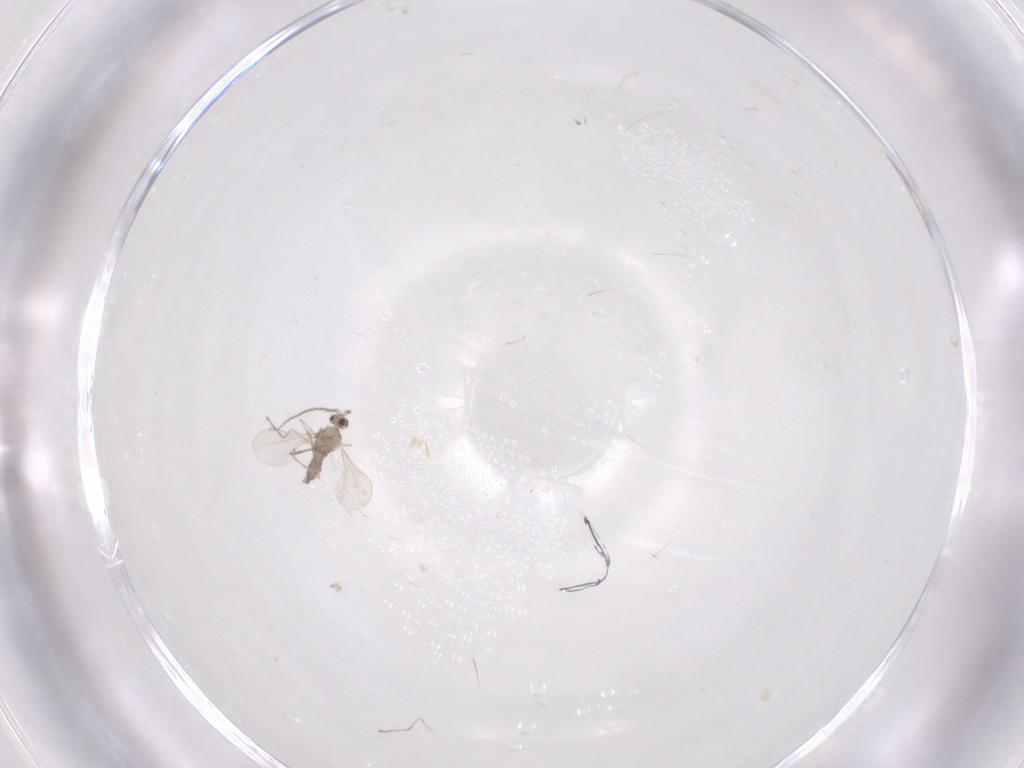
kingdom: Animalia
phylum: Arthropoda
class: Insecta
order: Diptera
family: Cecidomyiidae
